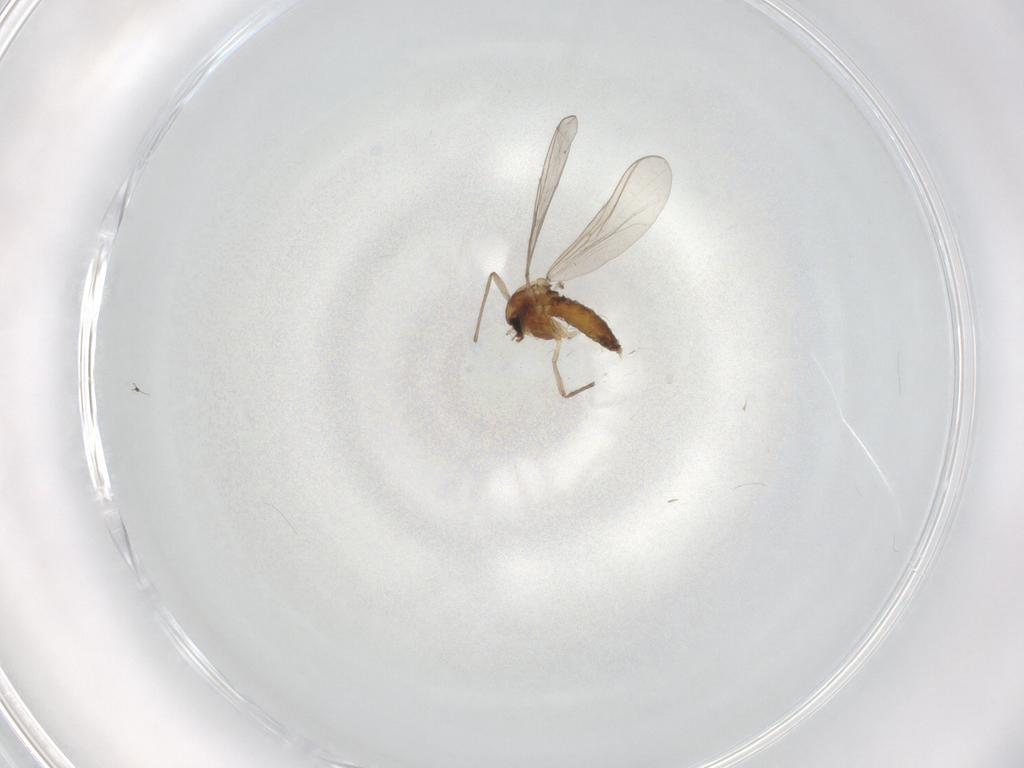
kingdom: Animalia
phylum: Arthropoda
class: Insecta
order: Diptera
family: Chironomidae
